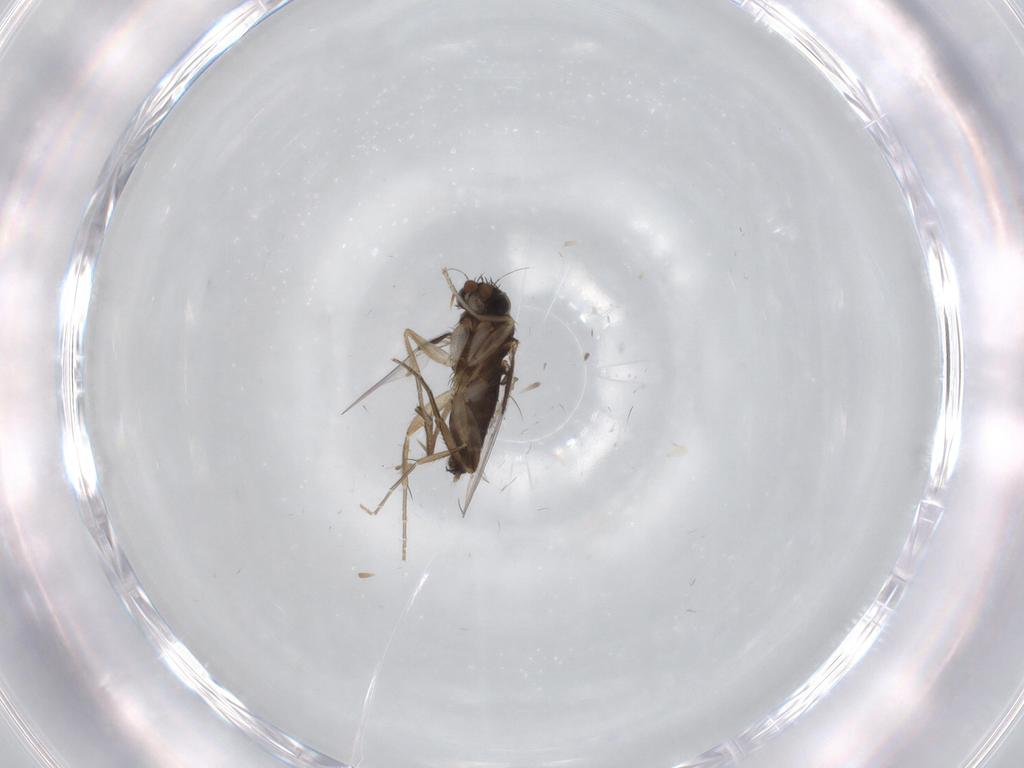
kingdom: Animalia
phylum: Arthropoda
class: Insecta
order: Diptera
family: Cecidomyiidae
